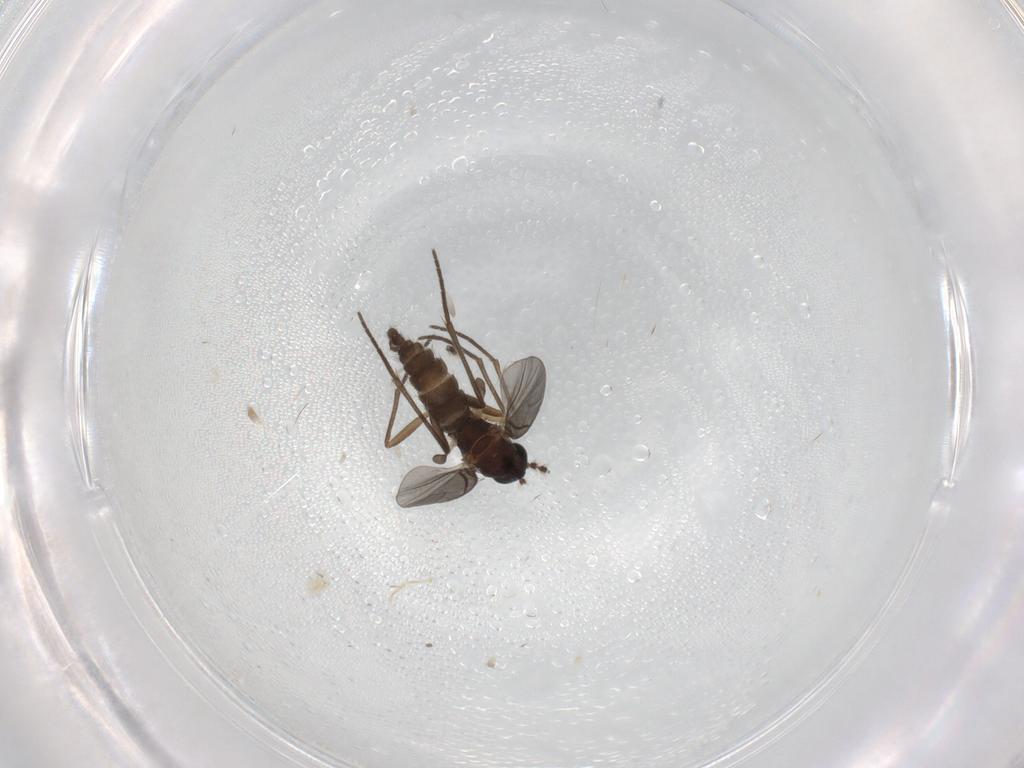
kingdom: Animalia
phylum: Arthropoda
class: Insecta
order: Diptera
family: Sciaridae
